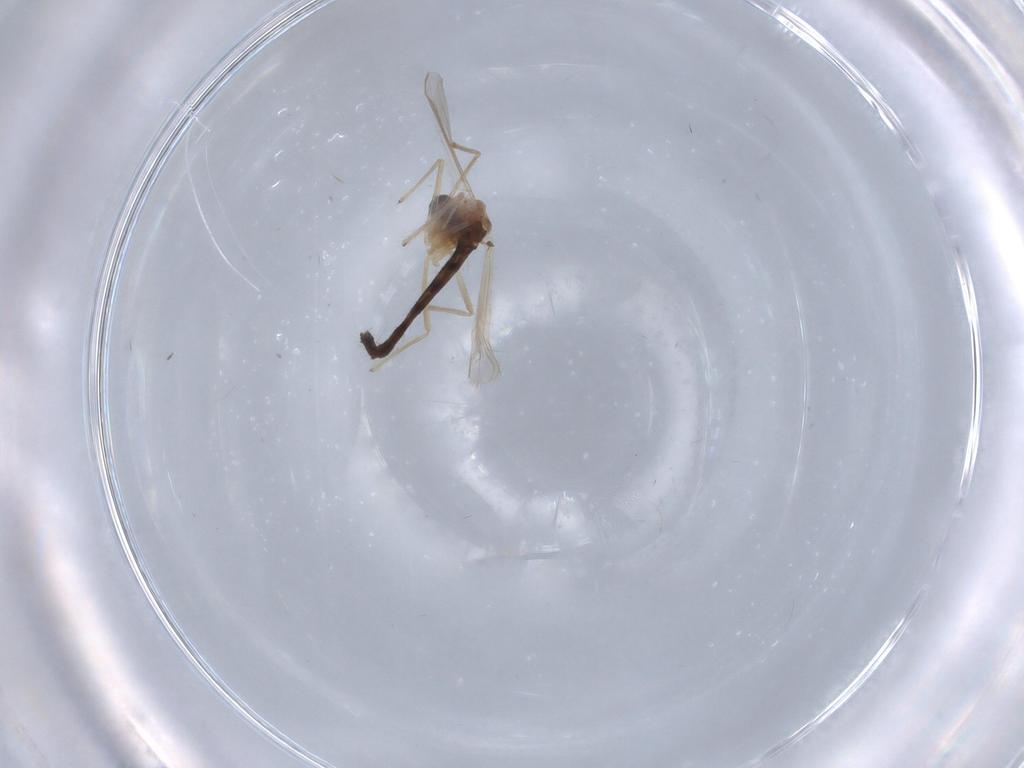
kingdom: Animalia
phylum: Arthropoda
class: Insecta
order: Diptera
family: Chironomidae
